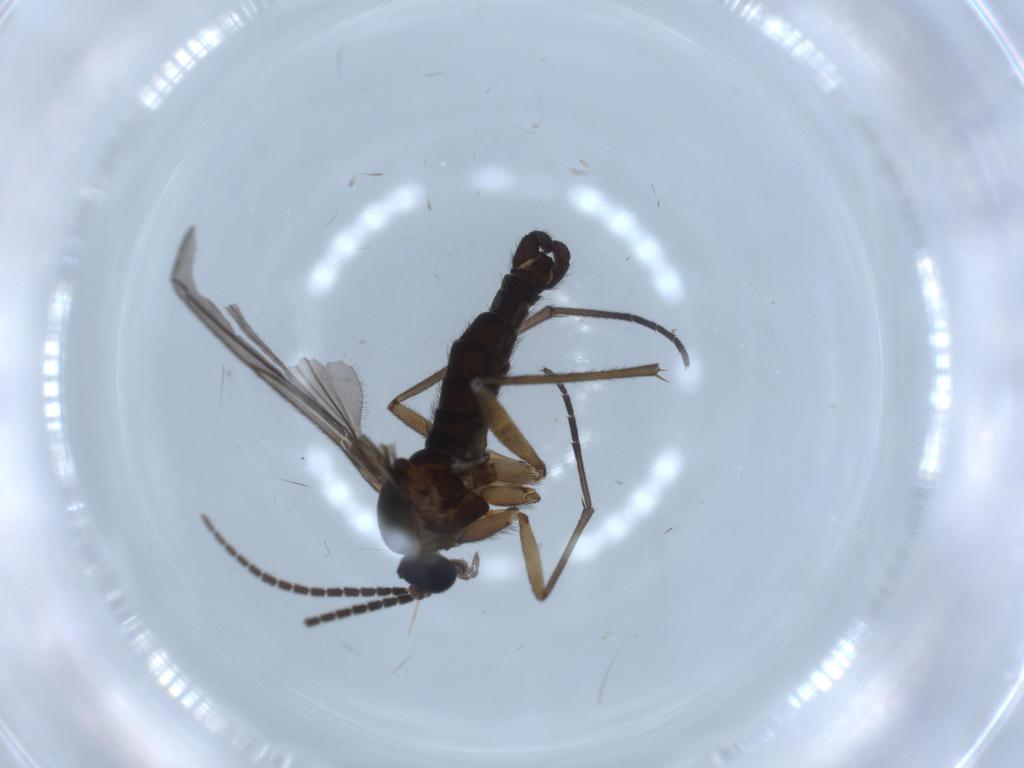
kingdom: Animalia
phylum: Arthropoda
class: Insecta
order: Diptera
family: Sciaridae
